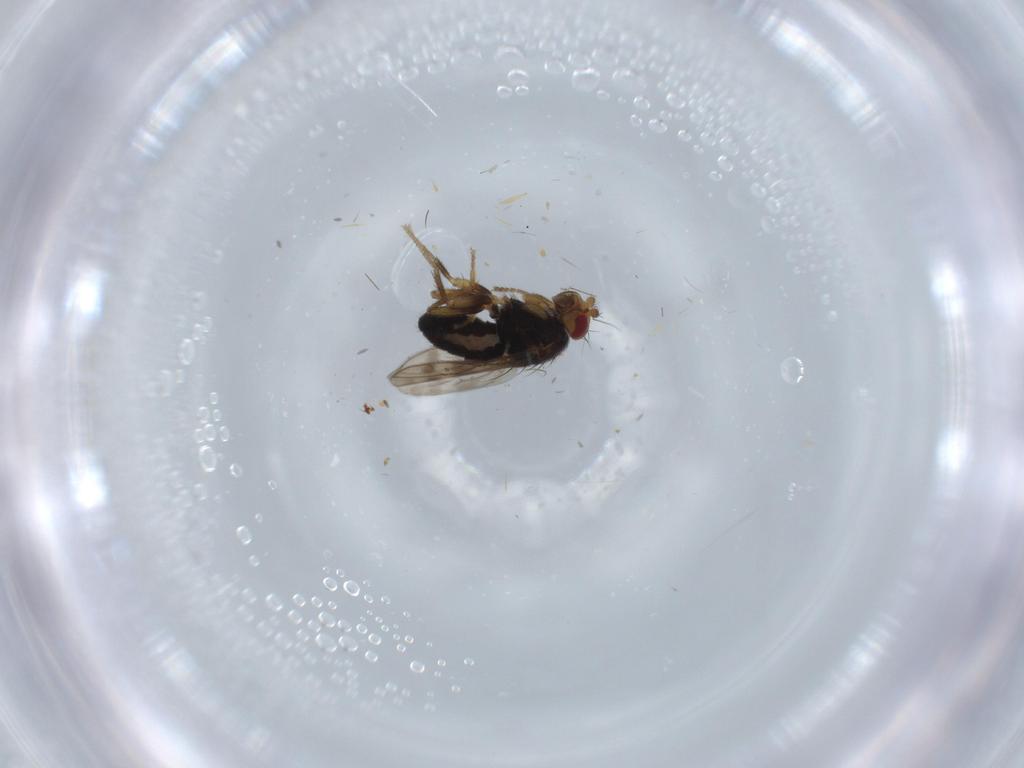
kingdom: Animalia
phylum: Arthropoda
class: Insecta
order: Diptera
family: Sphaeroceridae
